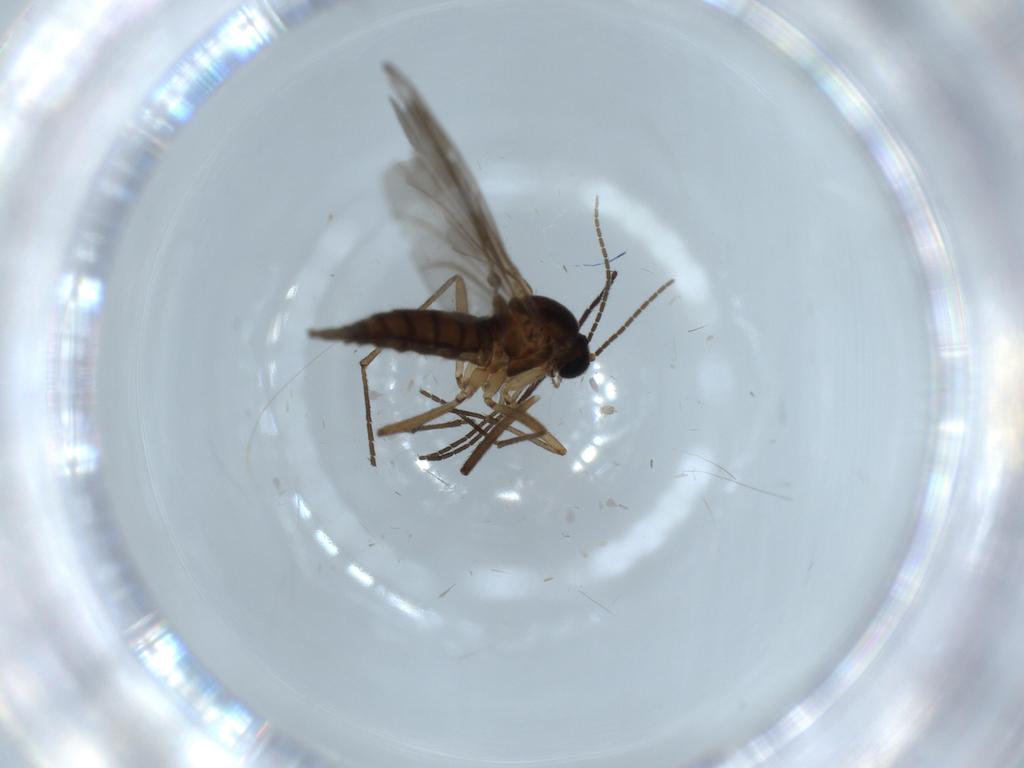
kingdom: Animalia
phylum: Arthropoda
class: Insecta
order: Diptera
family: Sciaridae
